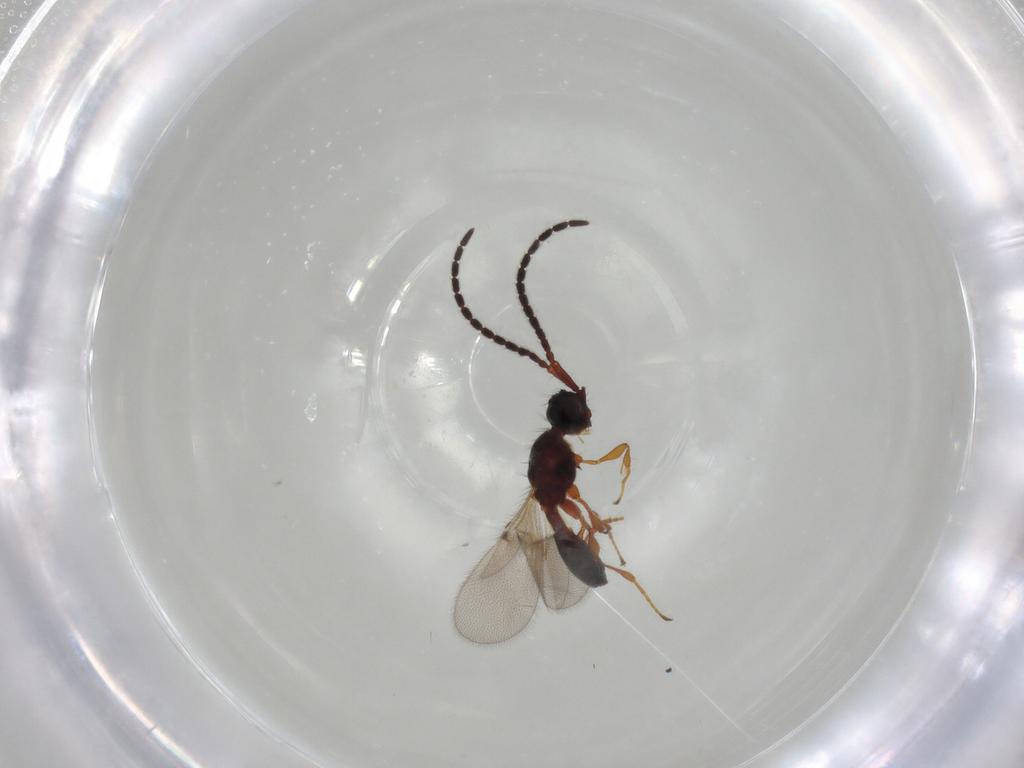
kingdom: Animalia
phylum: Arthropoda
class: Insecta
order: Hymenoptera
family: Diapriidae
